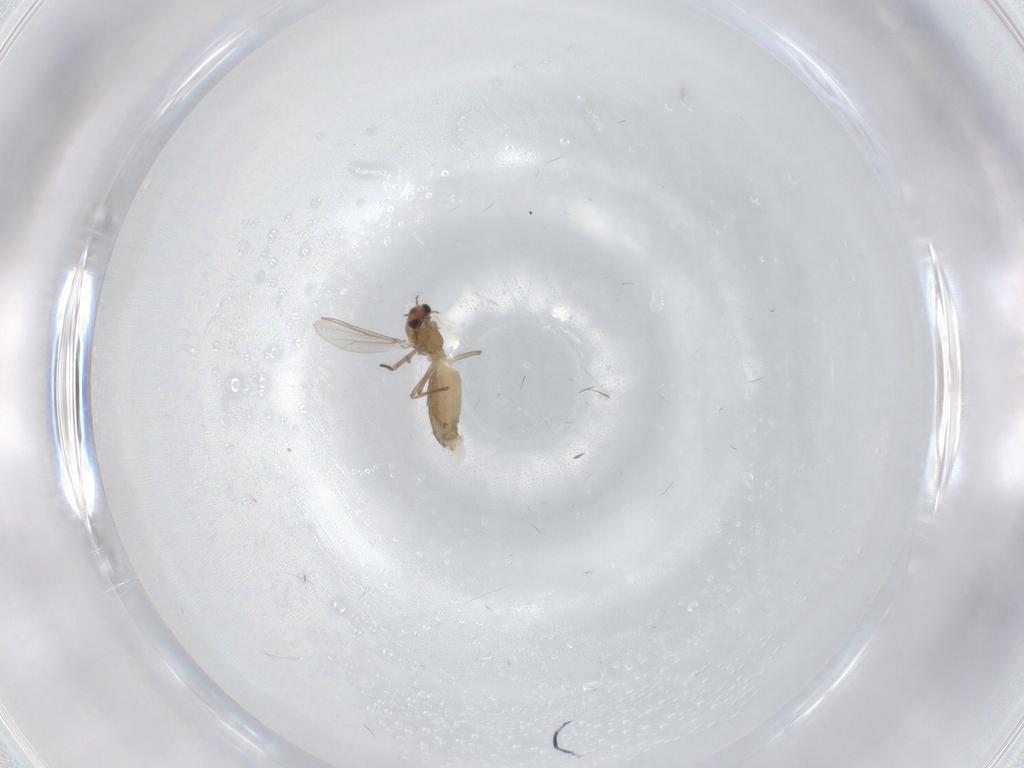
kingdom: Animalia
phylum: Arthropoda
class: Insecta
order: Diptera
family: Chironomidae
